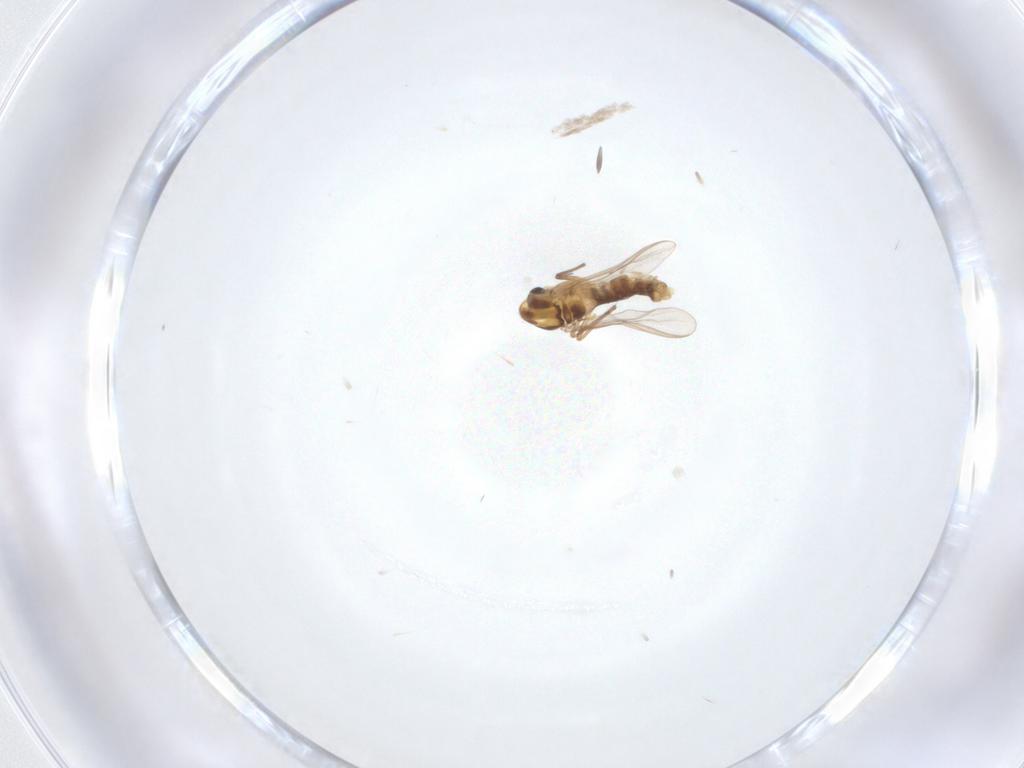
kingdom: Animalia
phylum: Arthropoda
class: Insecta
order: Diptera
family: Chironomidae
